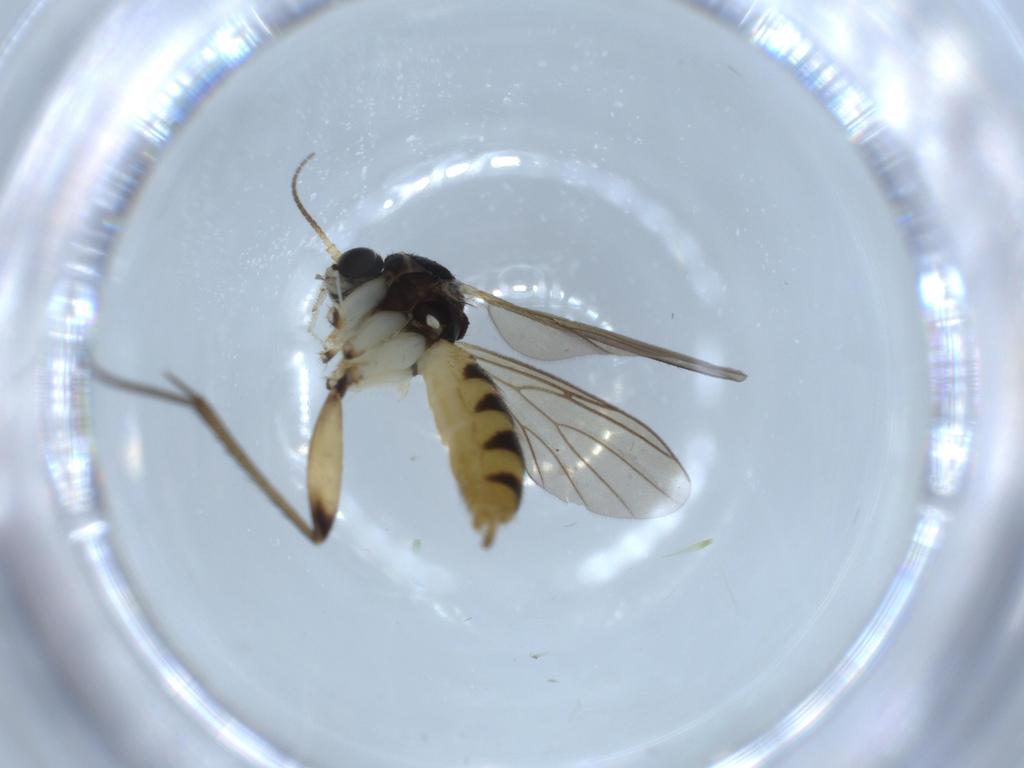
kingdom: Animalia
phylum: Arthropoda
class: Insecta
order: Diptera
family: Mycetophilidae
